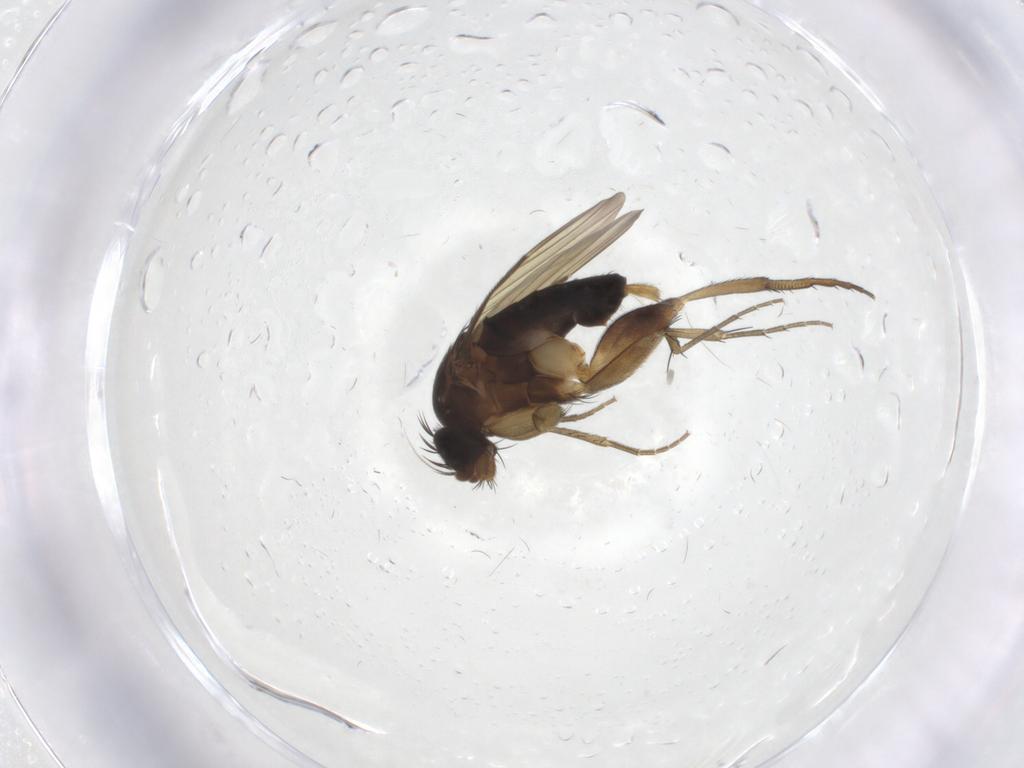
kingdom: Animalia
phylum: Arthropoda
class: Insecta
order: Diptera
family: Phoridae
